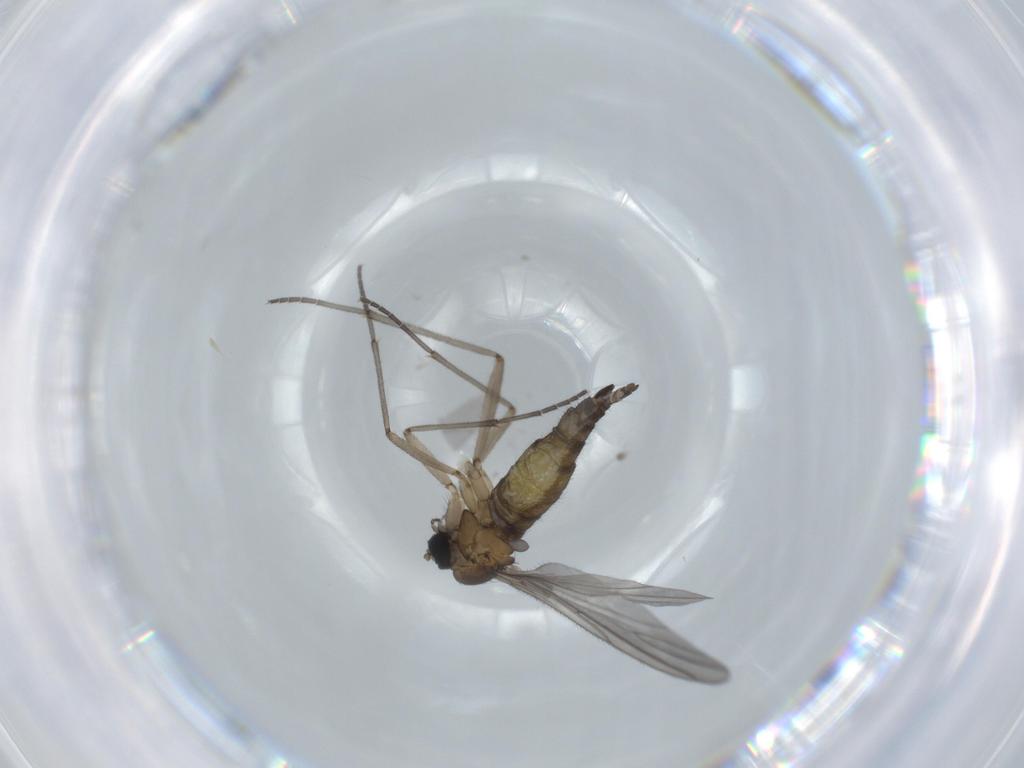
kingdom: Animalia
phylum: Arthropoda
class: Insecta
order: Diptera
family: Sciaridae
